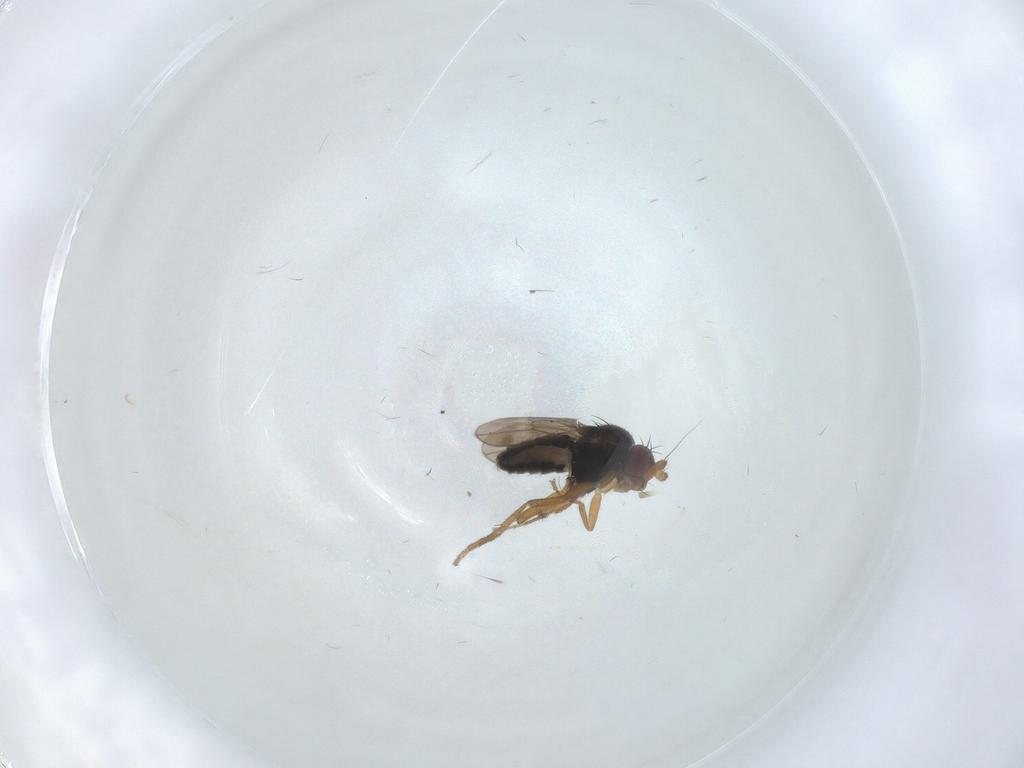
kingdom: Animalia
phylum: Arthropoda
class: Insecta
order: Diptera
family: Sphaeroceridae
